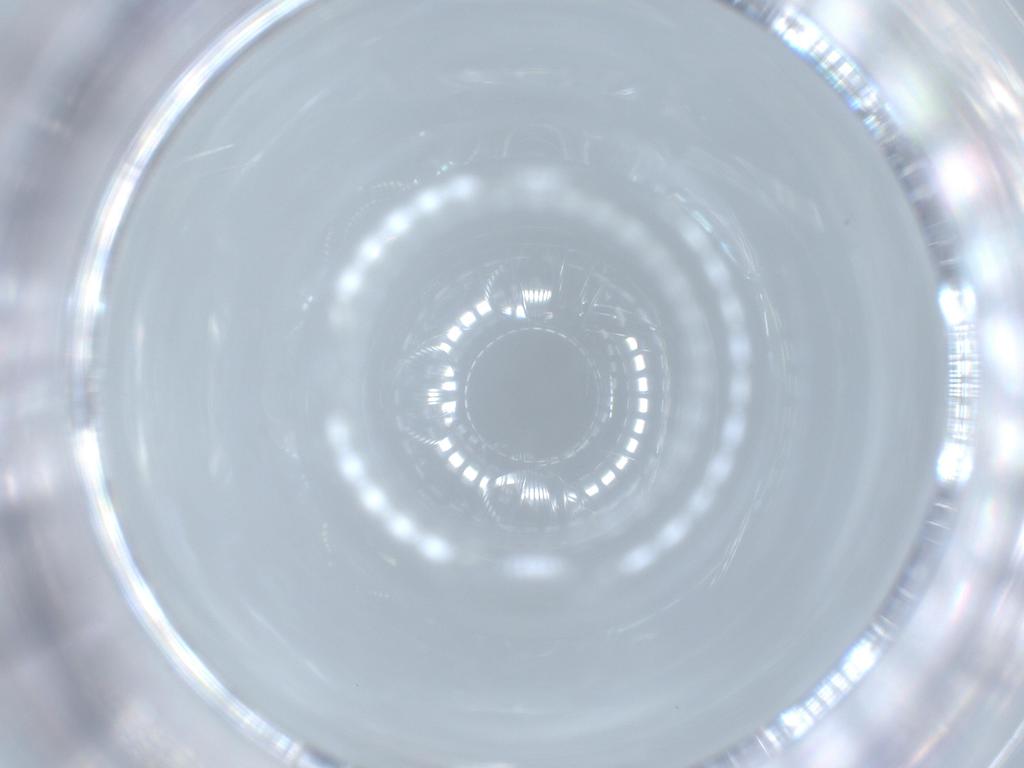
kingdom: Animalia
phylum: Arthropoda
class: Insecta
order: Diptera
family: Cecidomyiidae
